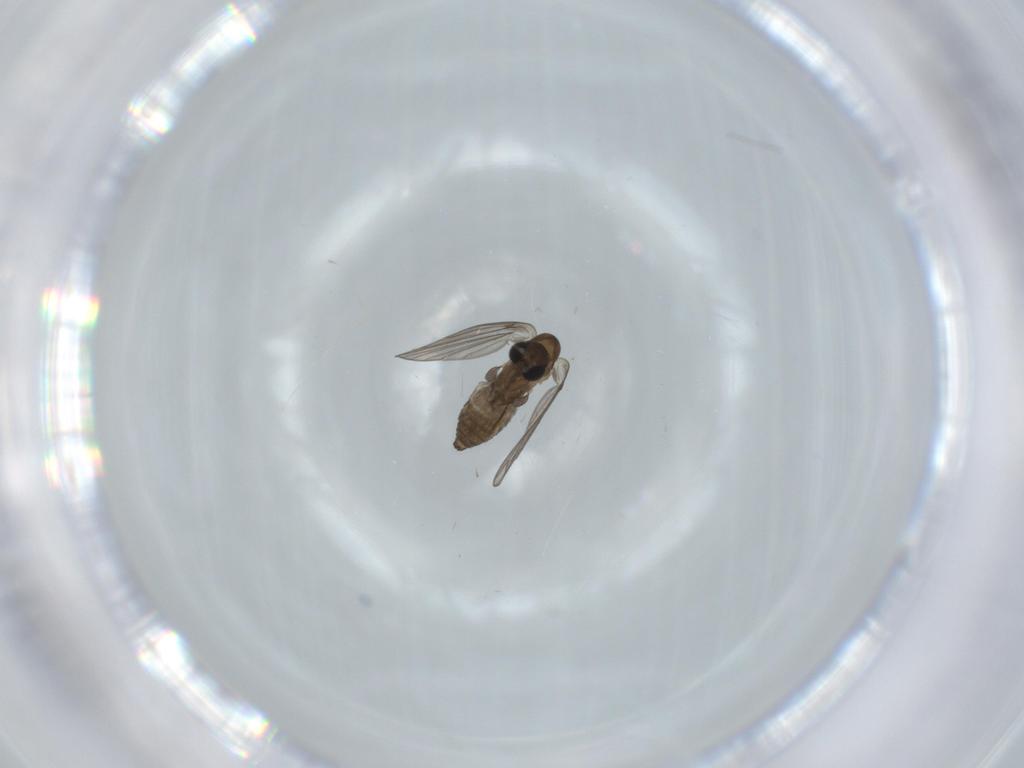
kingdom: Animalia
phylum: Arthropoda
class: Insecta
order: Diptera
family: Psychodidae
